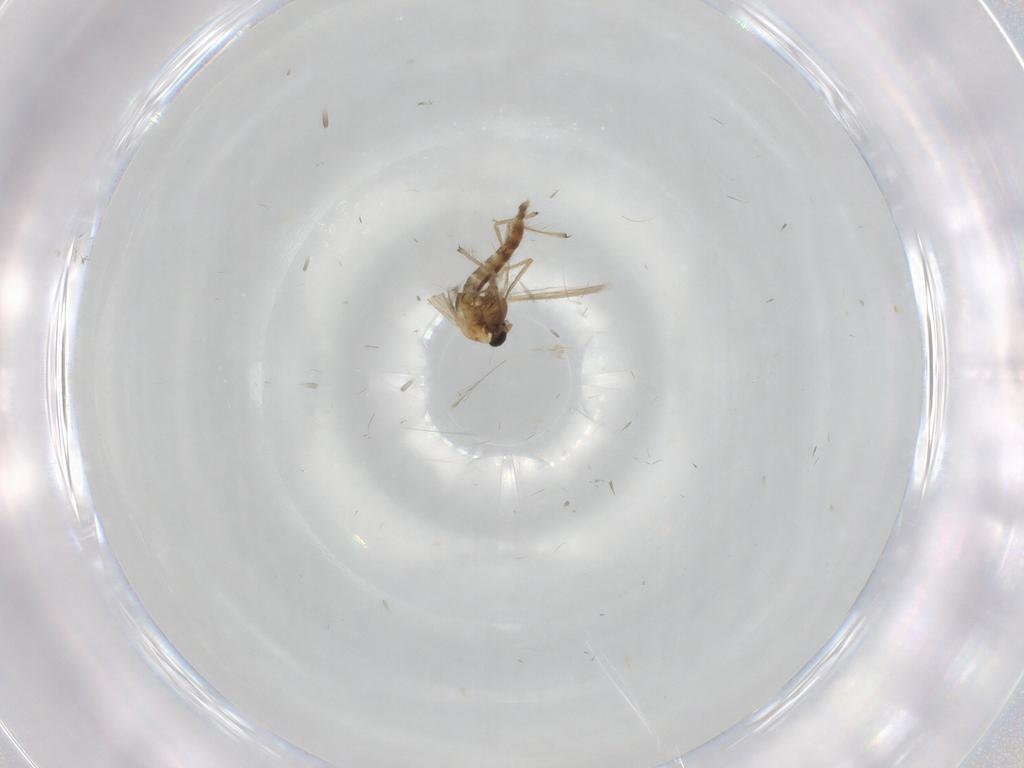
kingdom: Animalia
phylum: Arthropoda
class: Insecta
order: Diptera
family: Chironomidae
